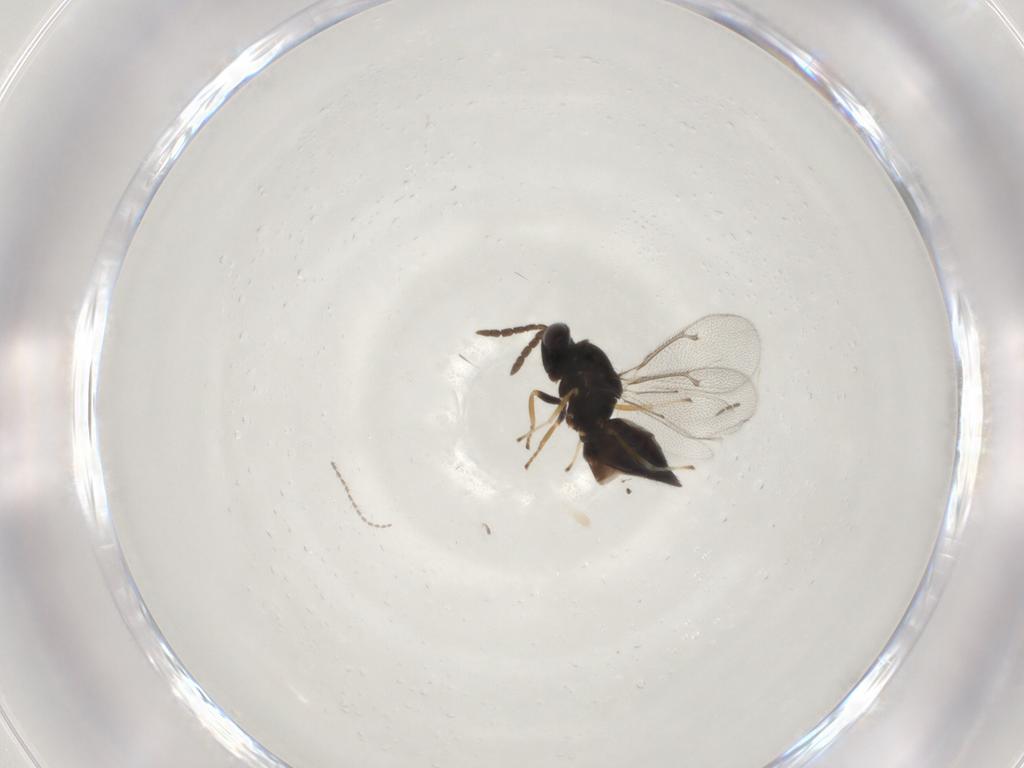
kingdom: Animalia
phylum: Arthropoda
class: Insecta
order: Hymenoptera
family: Eulophidae
